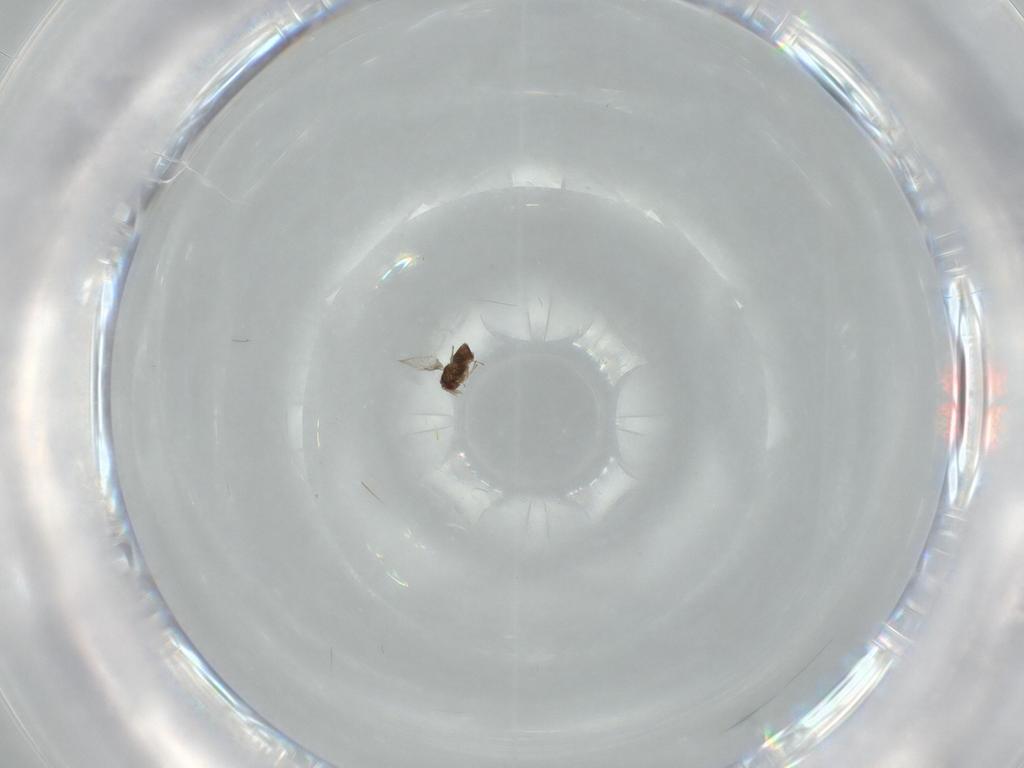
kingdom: Animalia
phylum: Arthropoda
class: Insecta
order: Hymenoptera
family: Trichogrammatidae
